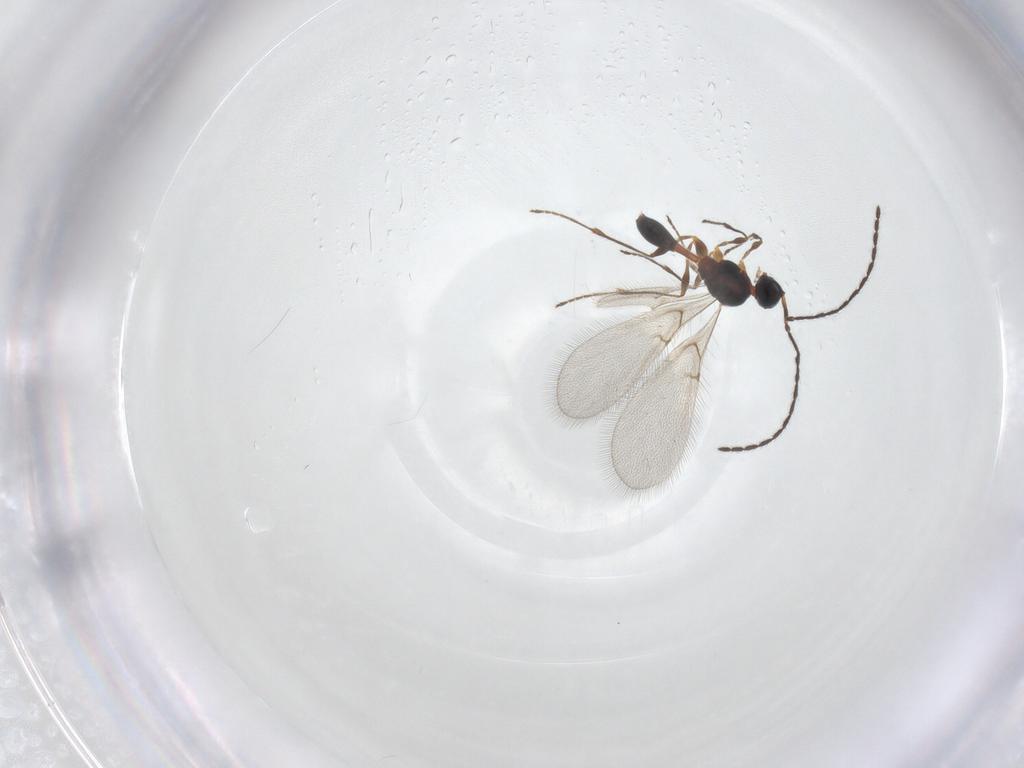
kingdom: Animalia
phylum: Arthropoda
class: Insecta
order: Hymenoptera
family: Diapriidae
